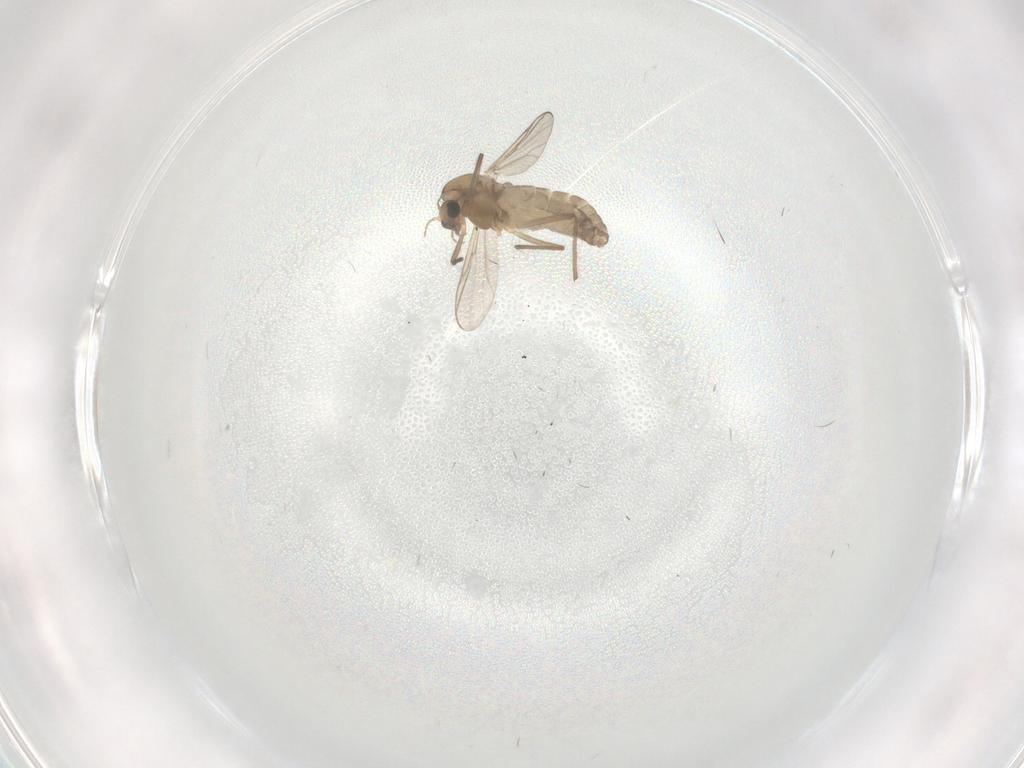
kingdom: Animalia
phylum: Arthropoda
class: Insecta
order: Diptera
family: Chironomidae
